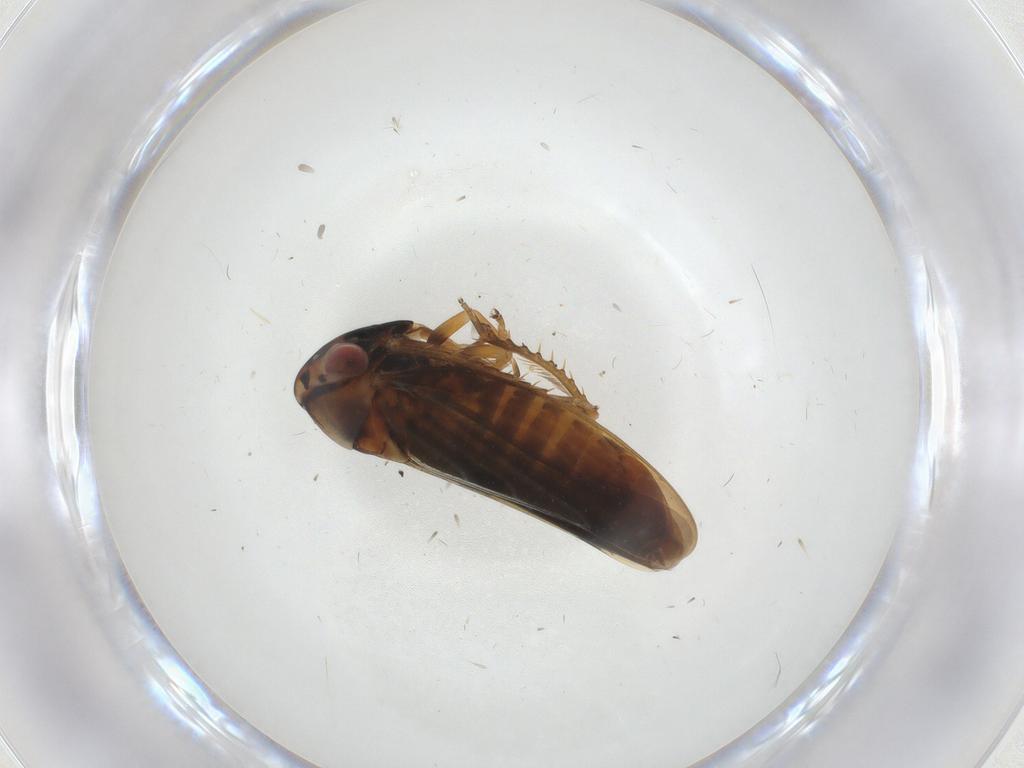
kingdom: Animalia
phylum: Arthropoda
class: Insecta
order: Hemiptera
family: Cicadellidae
